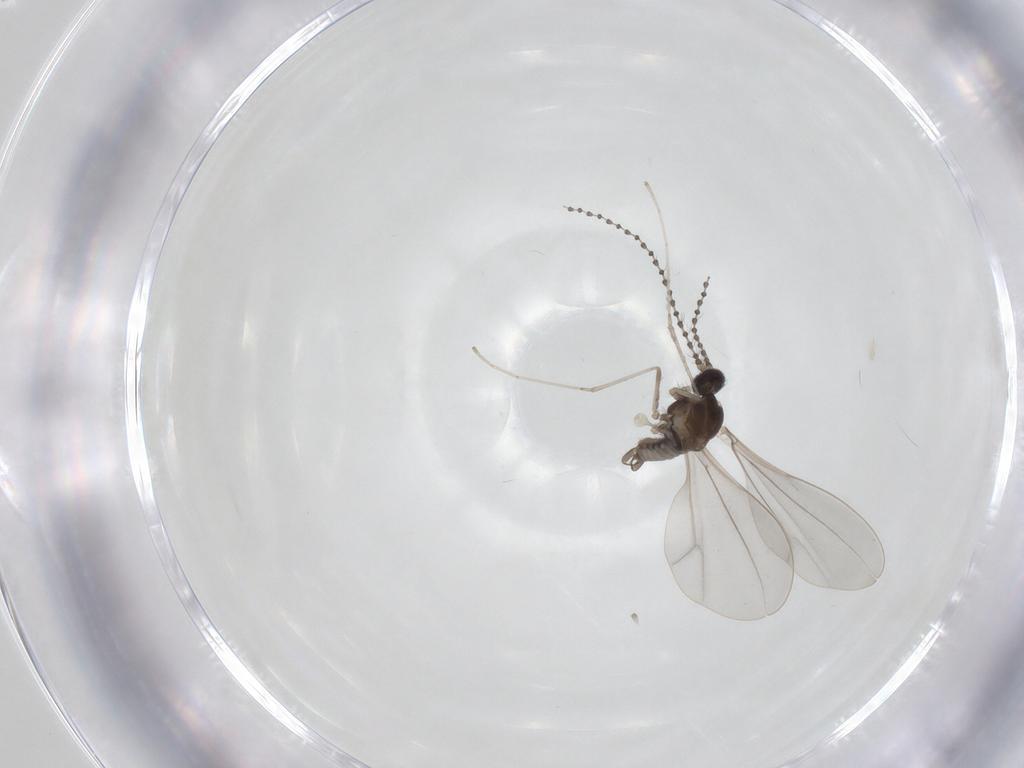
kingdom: Animalia
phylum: Arthropoda
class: Insecta
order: Diptera
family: Cecidomyiidae
